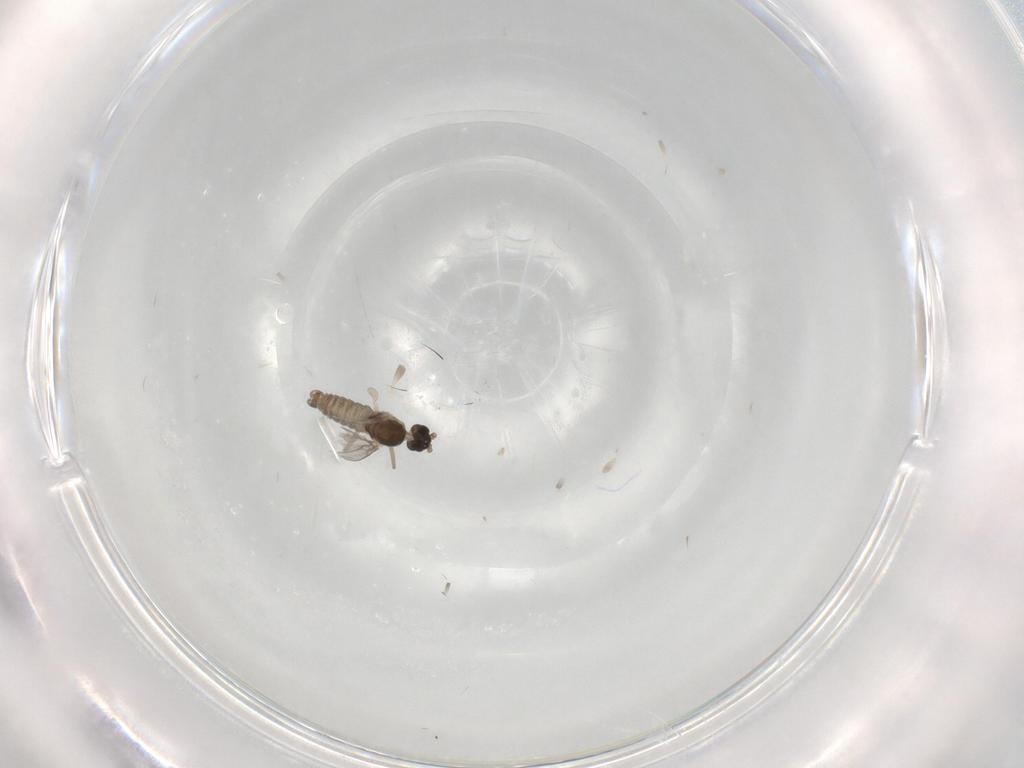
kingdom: Animalia
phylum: Arthropoda
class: Insecta
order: Diptera
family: Cecidomyiidae
